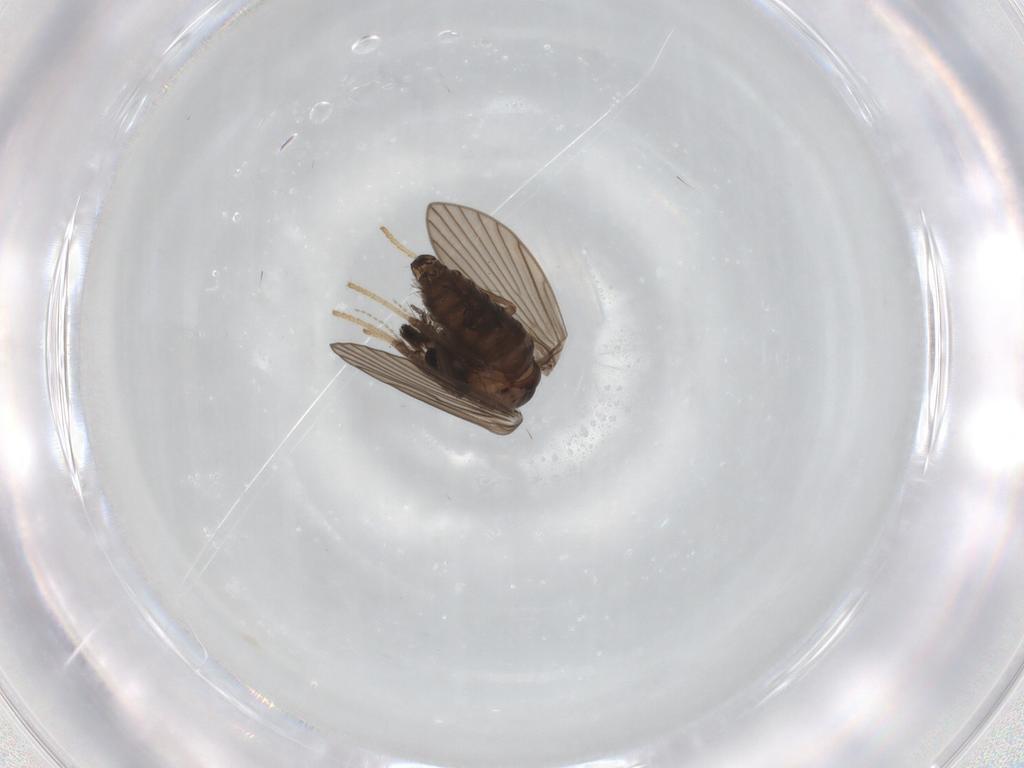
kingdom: Animalia
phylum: Arthropoda
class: Insecta
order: Diptera
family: Psychodidae
